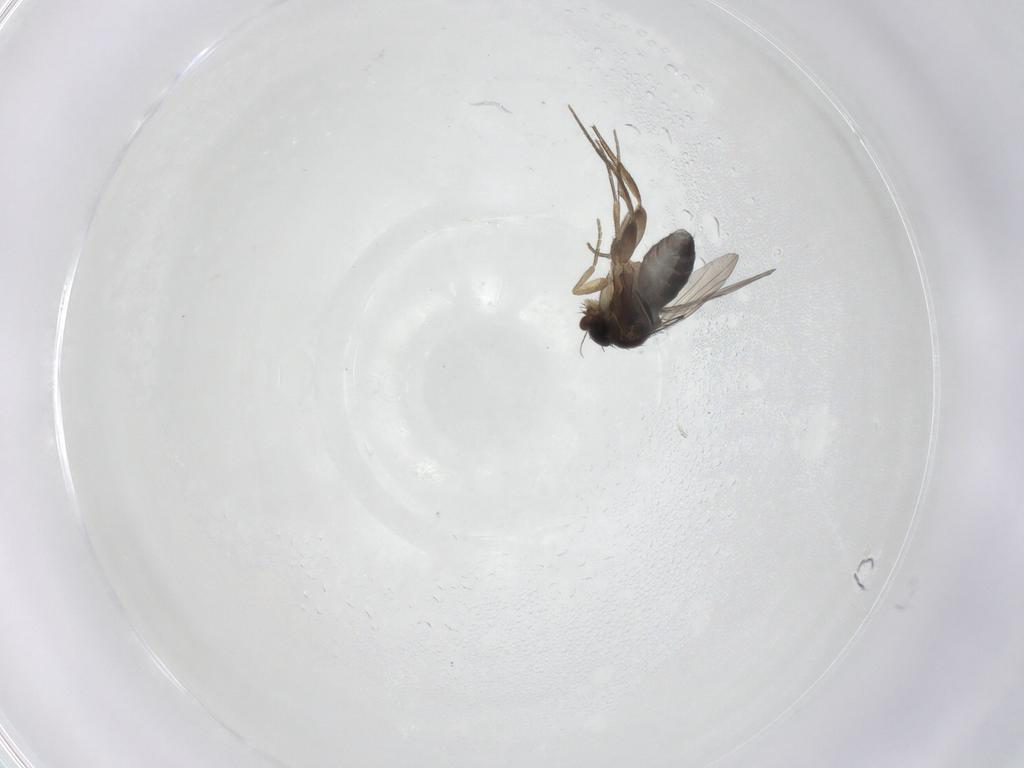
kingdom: Animalia
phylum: Arthropoda
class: Insecta
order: Diptera
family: Phoridae
